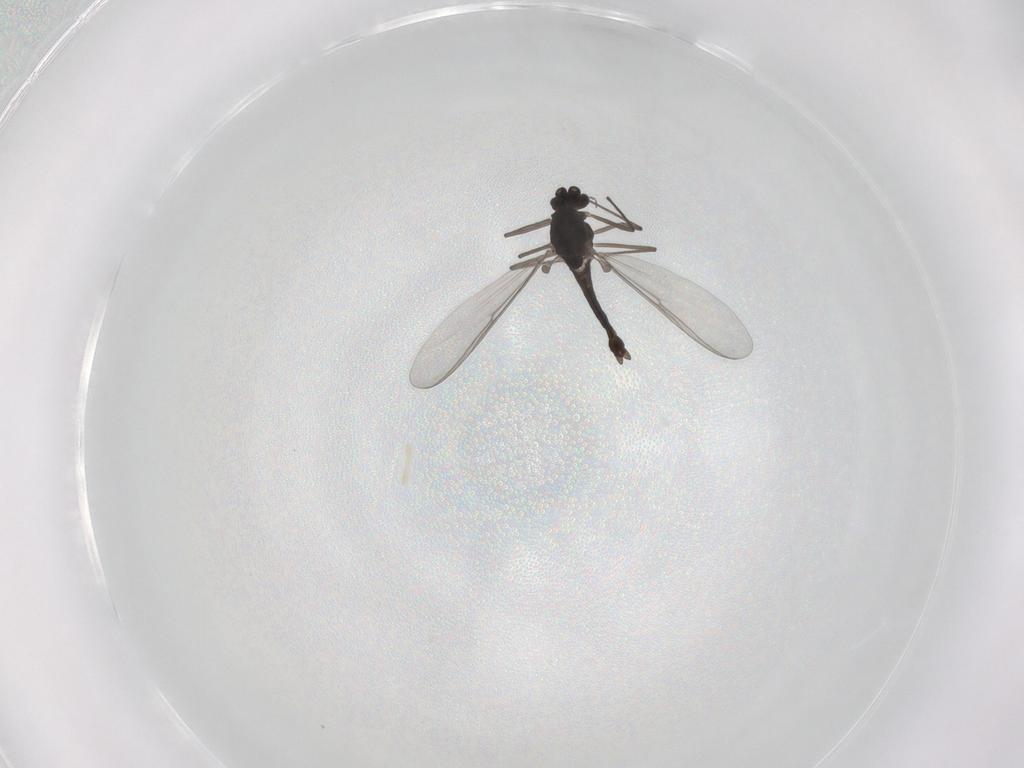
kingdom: Animalia
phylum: Arthropoda
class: Insecta
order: Diptera
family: Chironomidae
